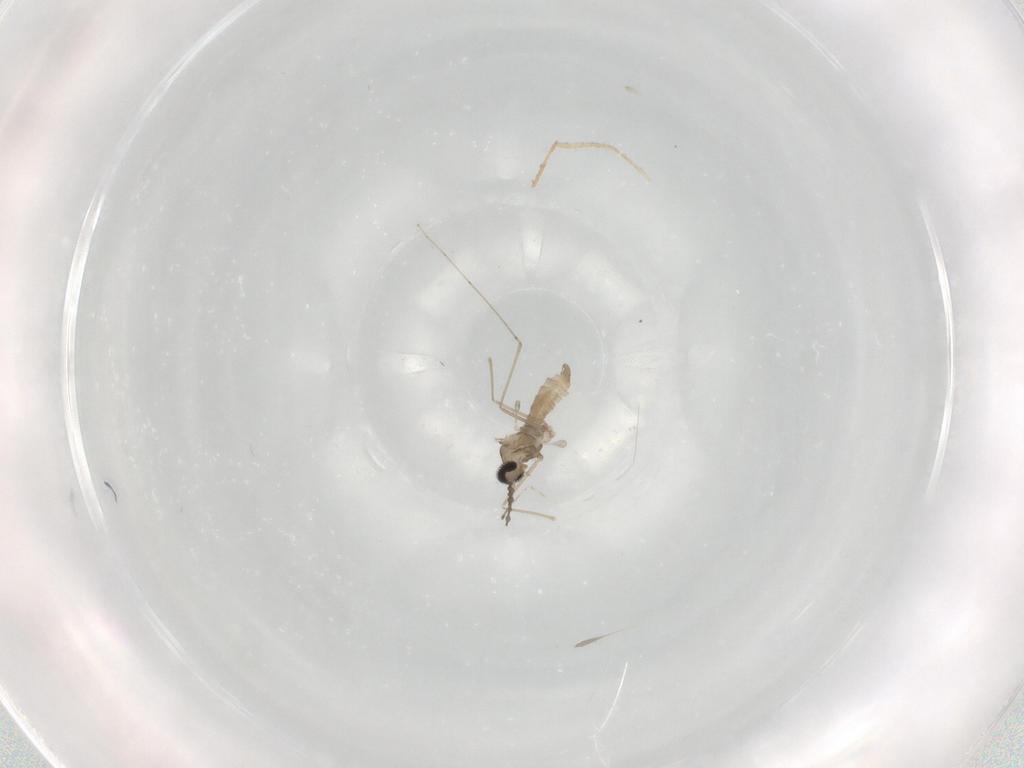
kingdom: Animalia
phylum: Arthropoda
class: Insecta
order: Diptera
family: Cecidomyiidae
